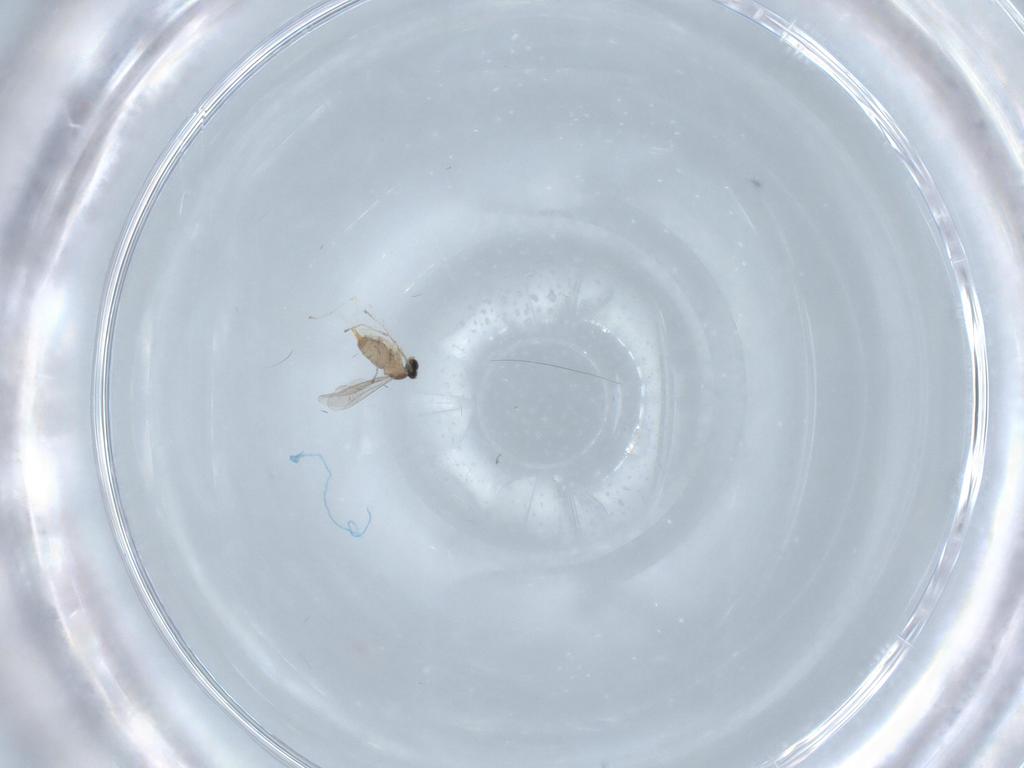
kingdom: Animalia
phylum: Arthropoda
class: Insecta
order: Diptera
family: Cecidomyiidae
